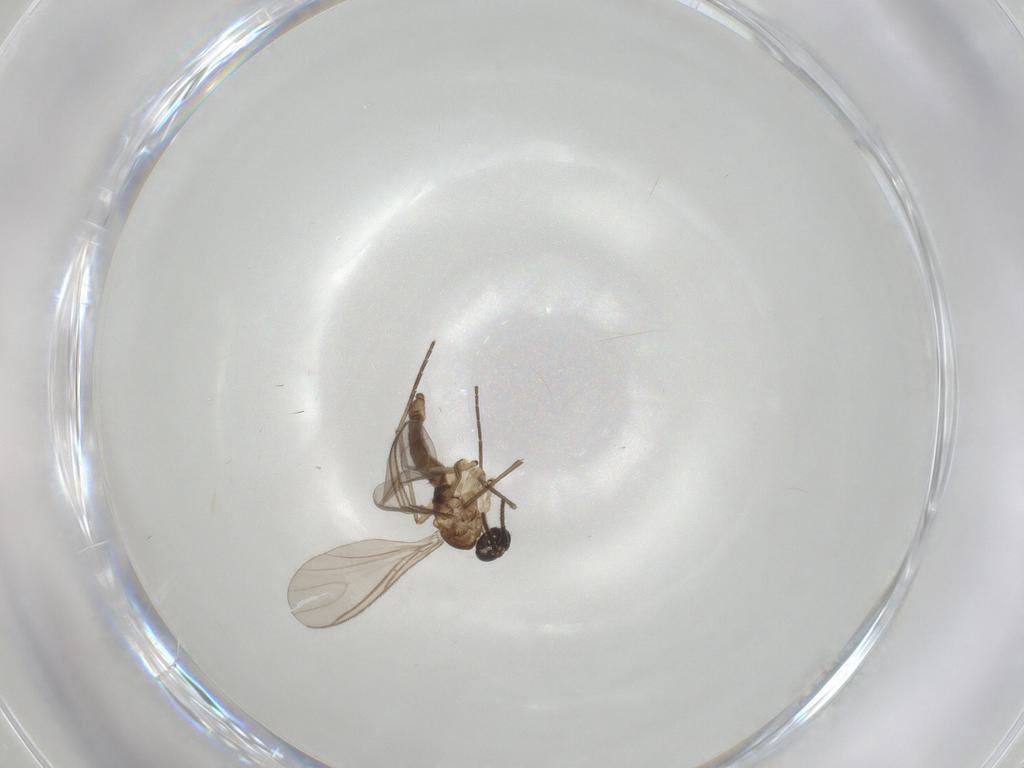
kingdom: Animalia
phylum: Arthropoda
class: Insecta
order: Diptera
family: Sciaridae
